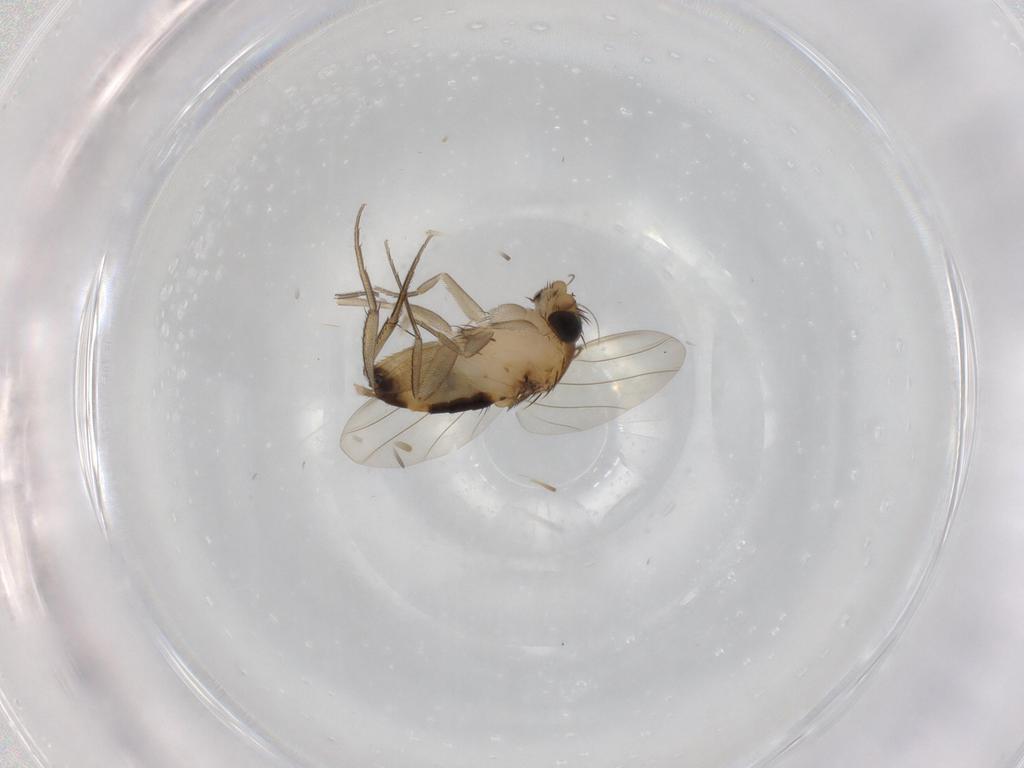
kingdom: Animalia
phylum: Arthropoda
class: Insecta
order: Diptera
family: Phoridae
